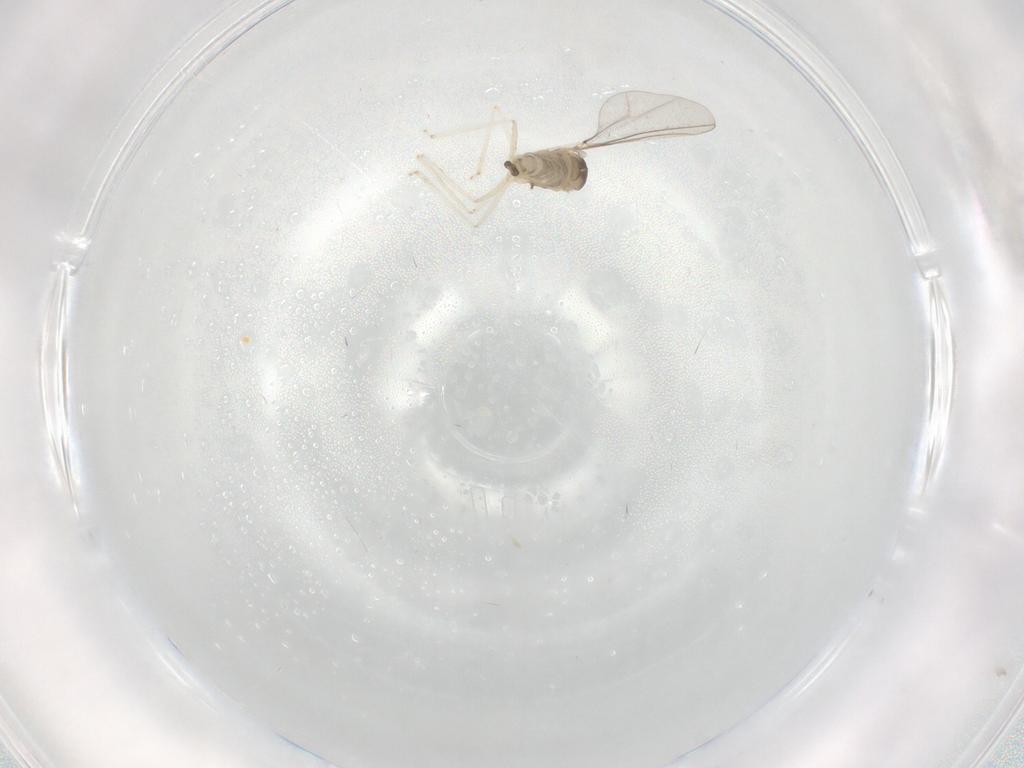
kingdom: Animalia
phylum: Arthropoda
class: Insecta
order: Diptera
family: Cecidomyiidae
